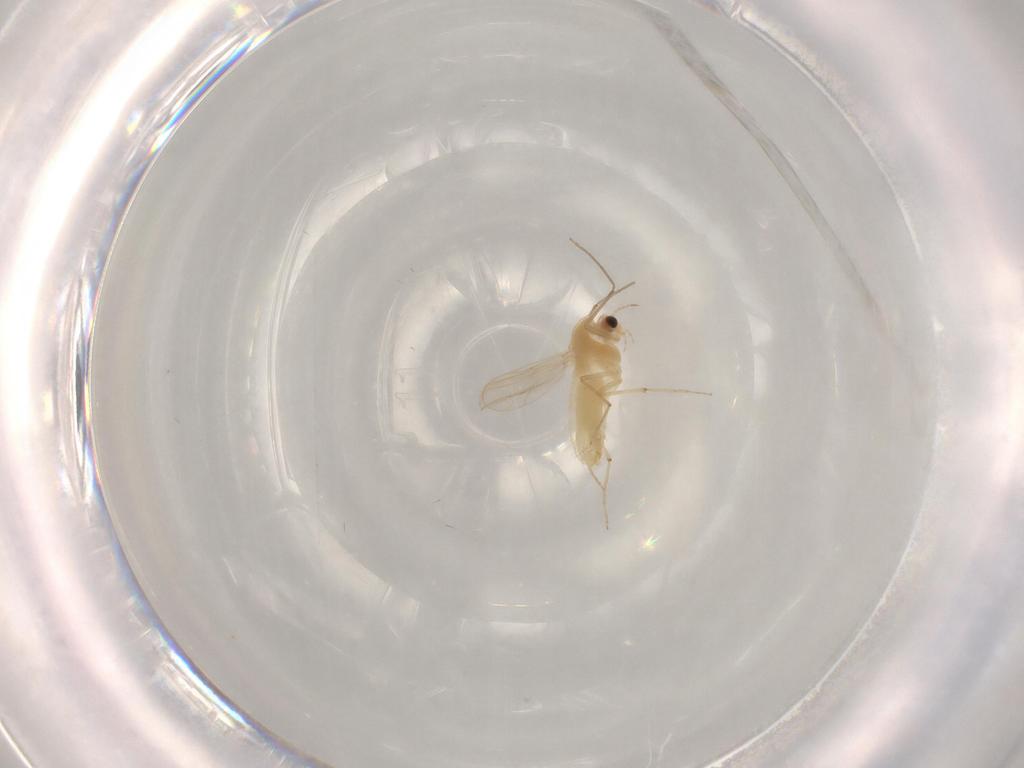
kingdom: Animalia
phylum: Arthropoda
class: Insecta
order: Diptera
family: Chironomidae
